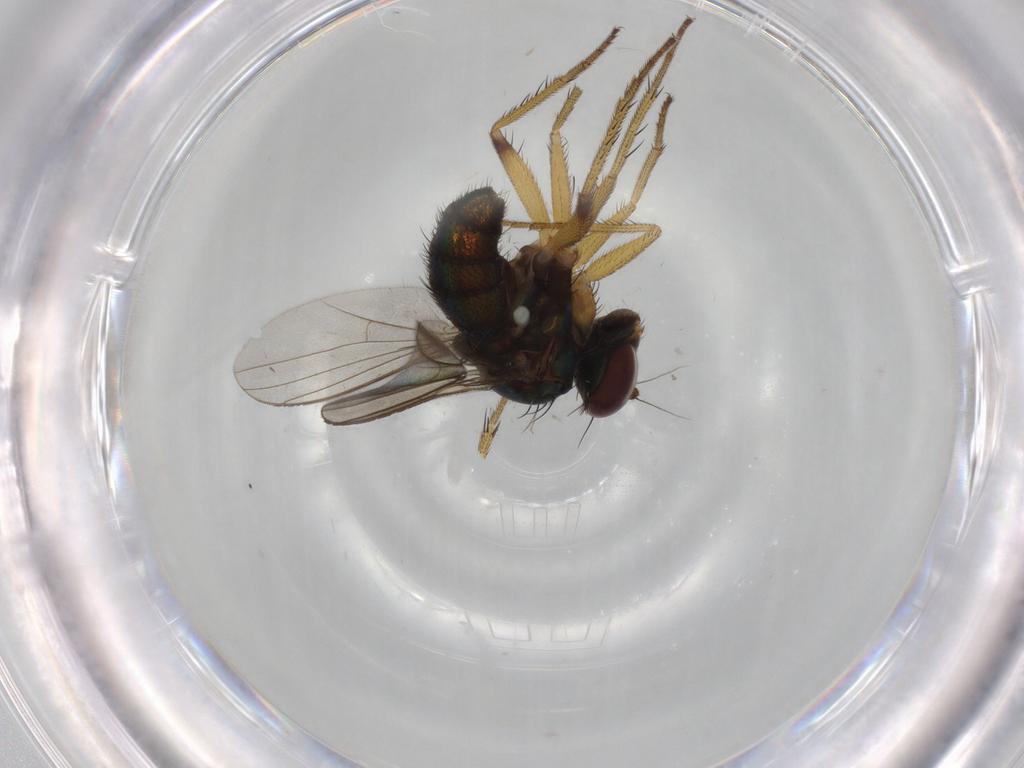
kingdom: Animalia
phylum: Arthropoda
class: Insecta
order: Diptera
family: Dolichopodidae
